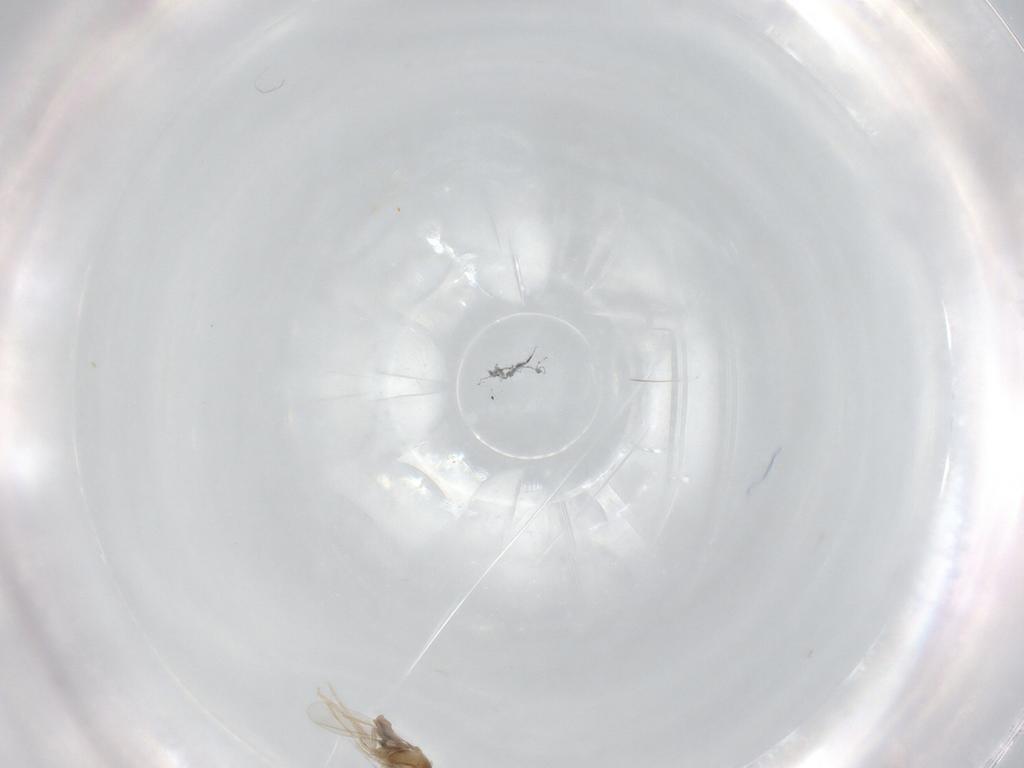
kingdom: Animalia
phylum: Arthropoda
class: Insecta
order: Diptera
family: Cecidomyiidae
